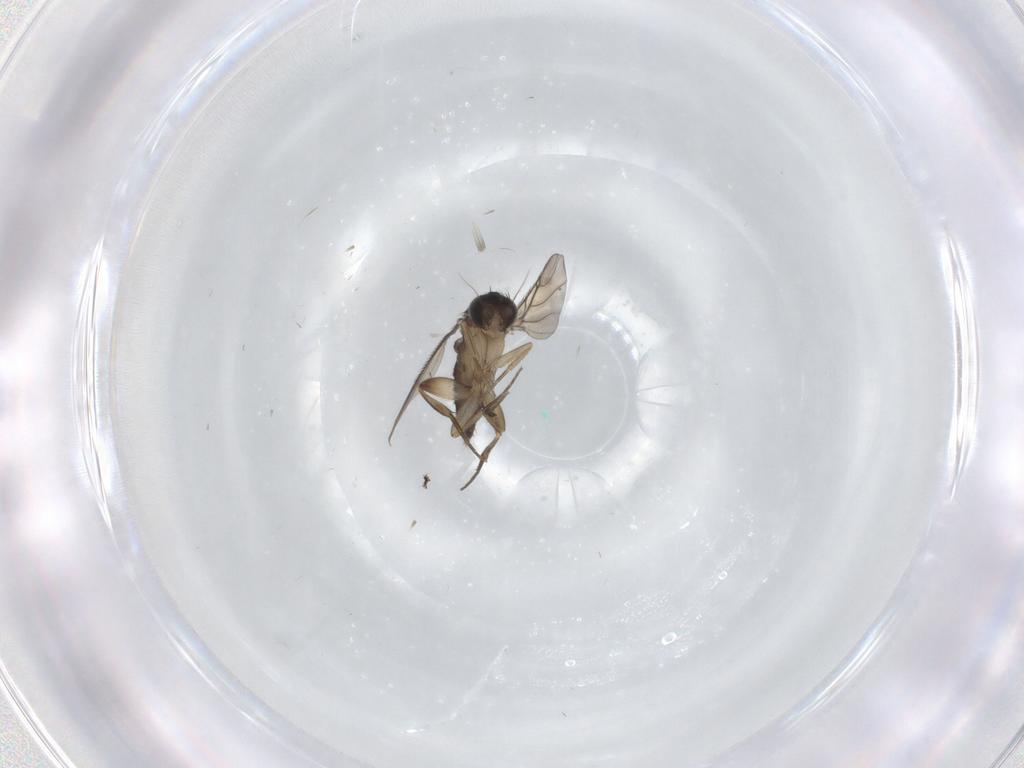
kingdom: Animalia
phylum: Arthropoda
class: Insecta
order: Diptera
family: Phoridae
